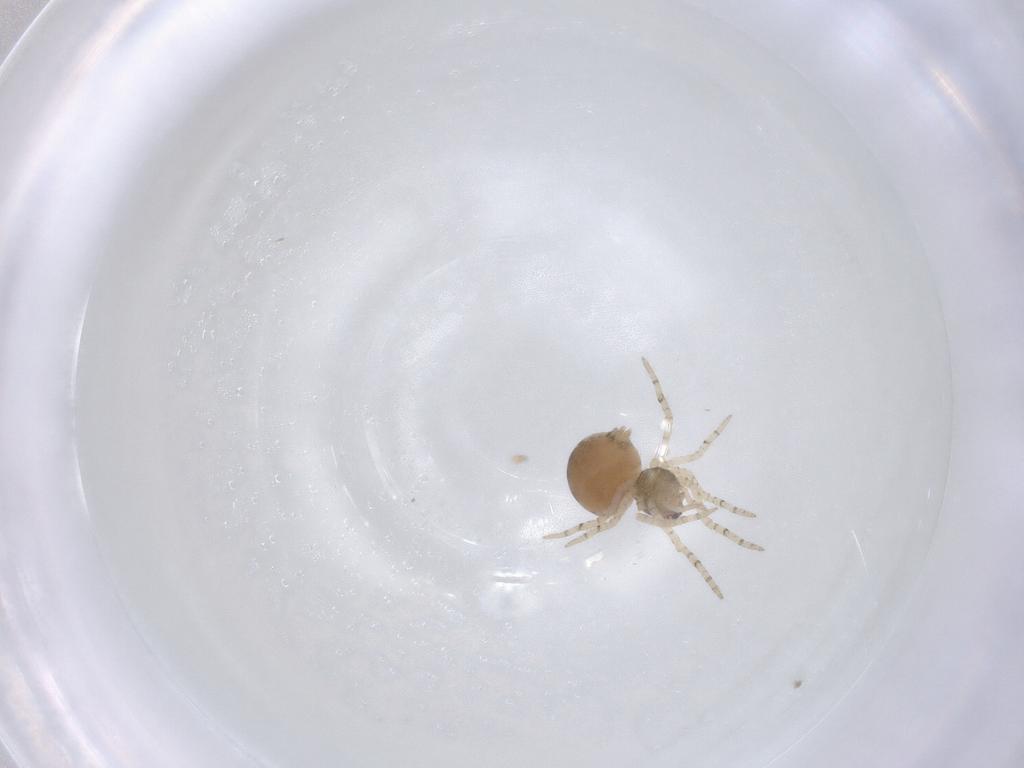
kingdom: Animalia
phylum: Arthropoda
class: Arachnida
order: Araneae
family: Theridiidae
